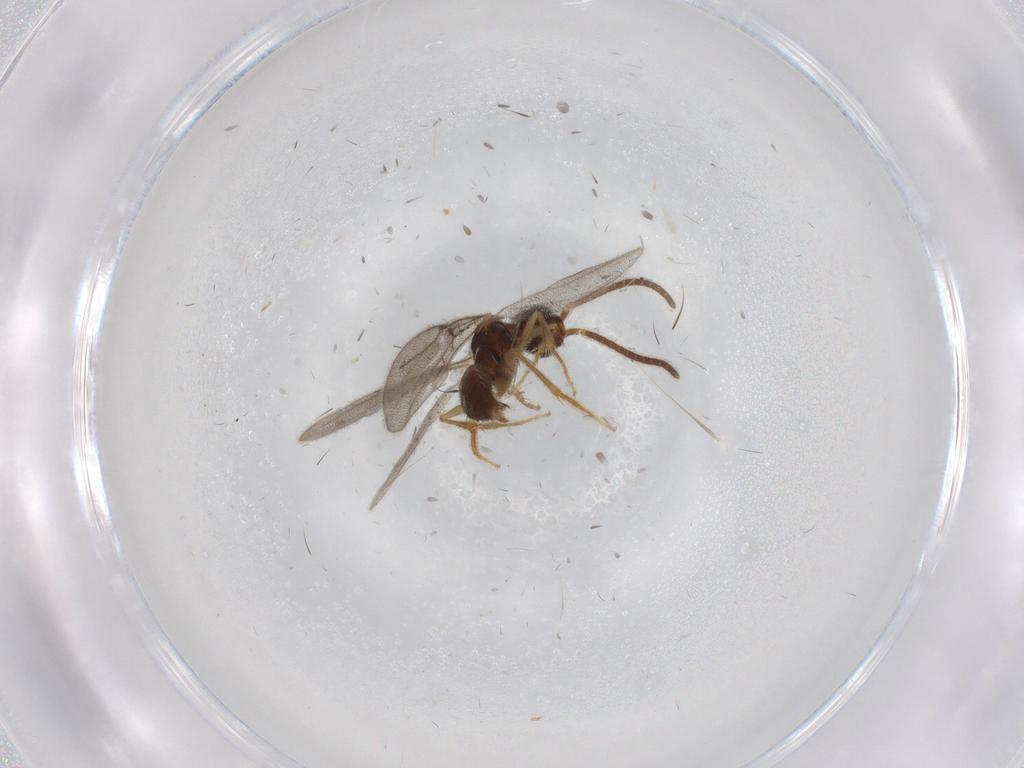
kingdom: Animalia
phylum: Arthropoda
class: Insecta
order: Hymenoptera
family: Bethylidae
